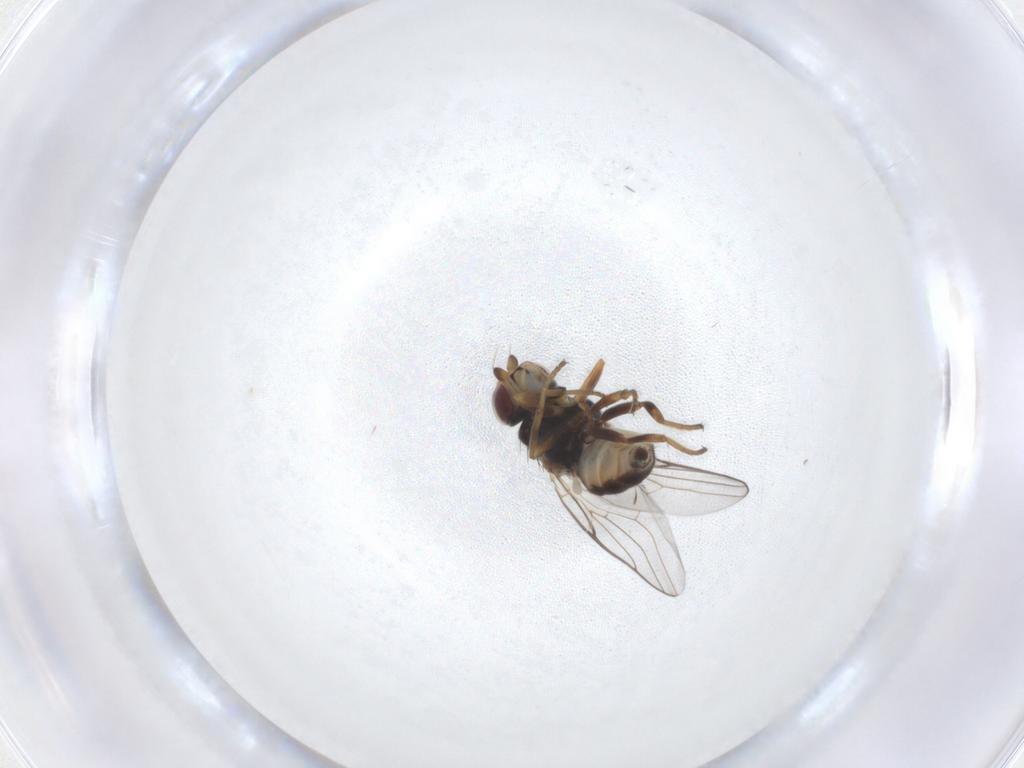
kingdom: Animalia
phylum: Arthropoda
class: Insecta
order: Diptera
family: Chloropidae
